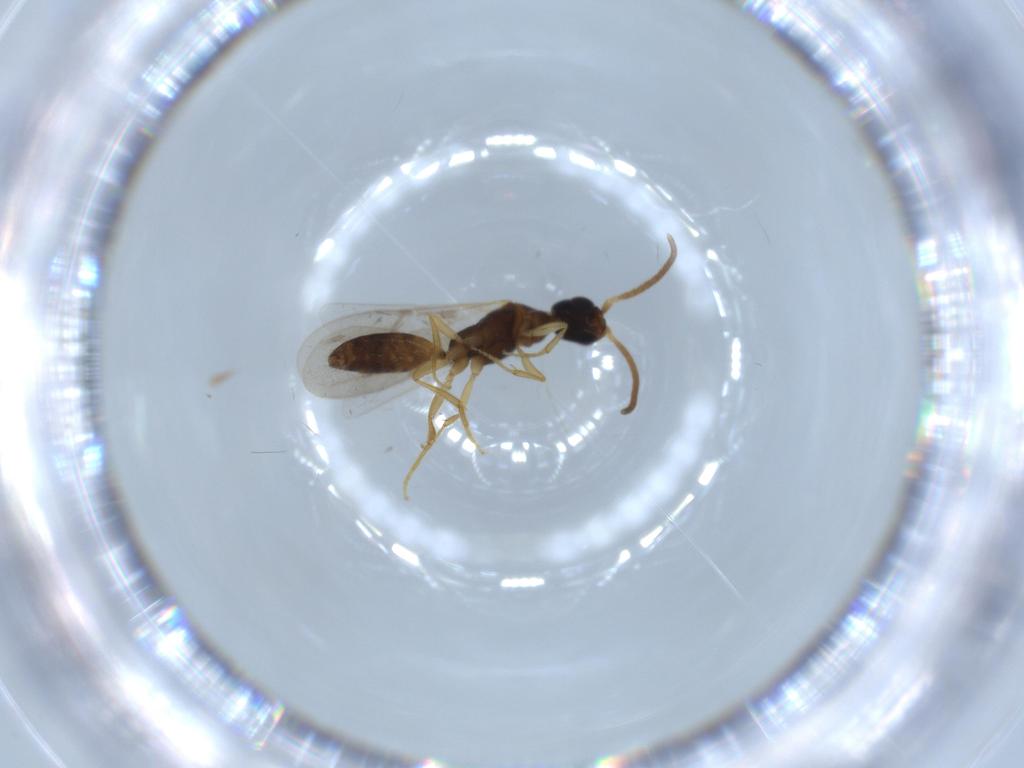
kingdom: Animalia
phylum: Arthropoda
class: Insecta
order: Hymenoptera
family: Bethylidae
